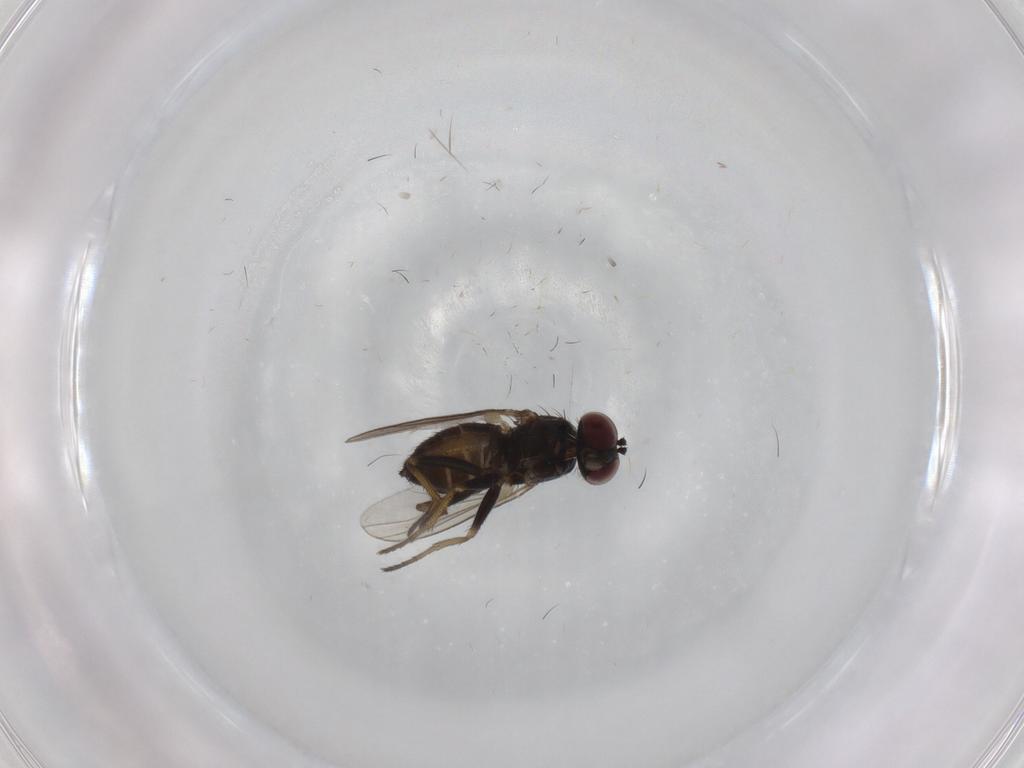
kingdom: Animalia
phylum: Arthropoda
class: Insecta
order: Diptera
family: Dolichopodidae
